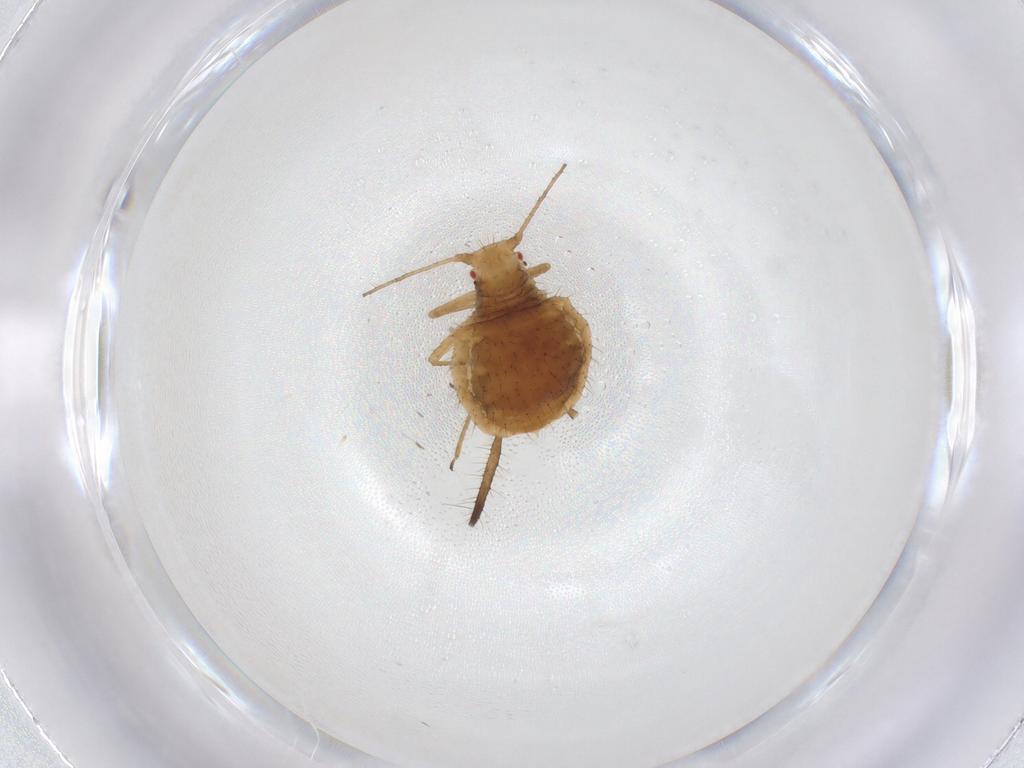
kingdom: Animalia
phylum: Arthropoda
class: Insecta
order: Hemiptera
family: Aphididae
